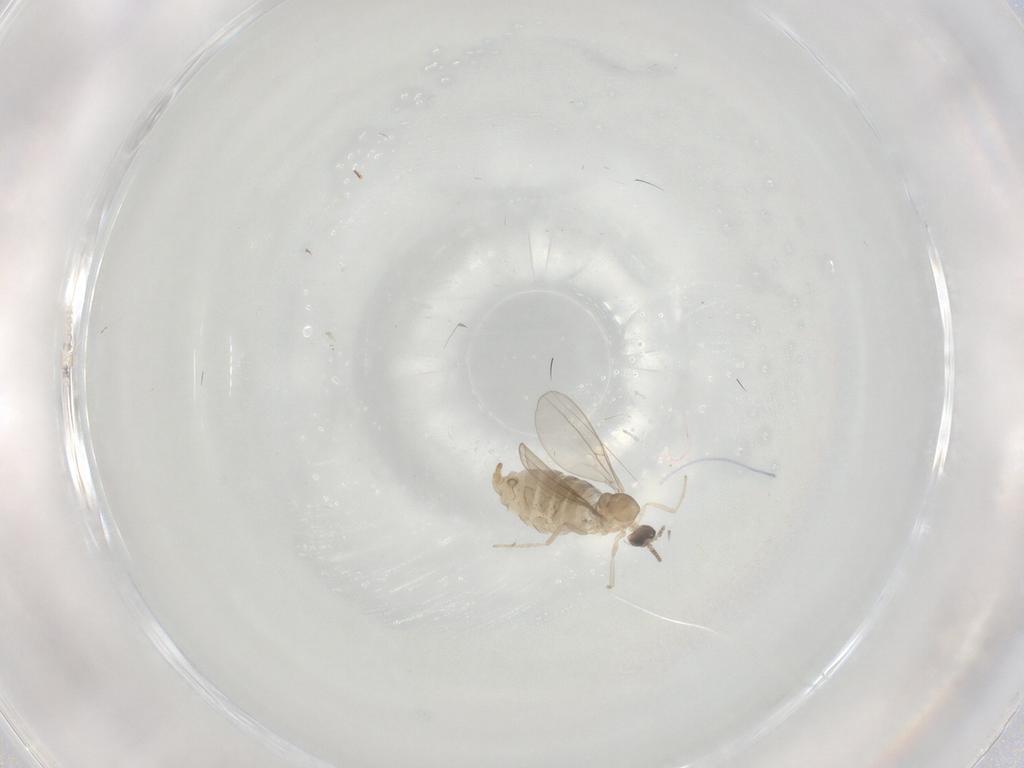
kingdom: Animalia
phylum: Arthropoda
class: Insecta
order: Diptera
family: Cecidomyiidae
